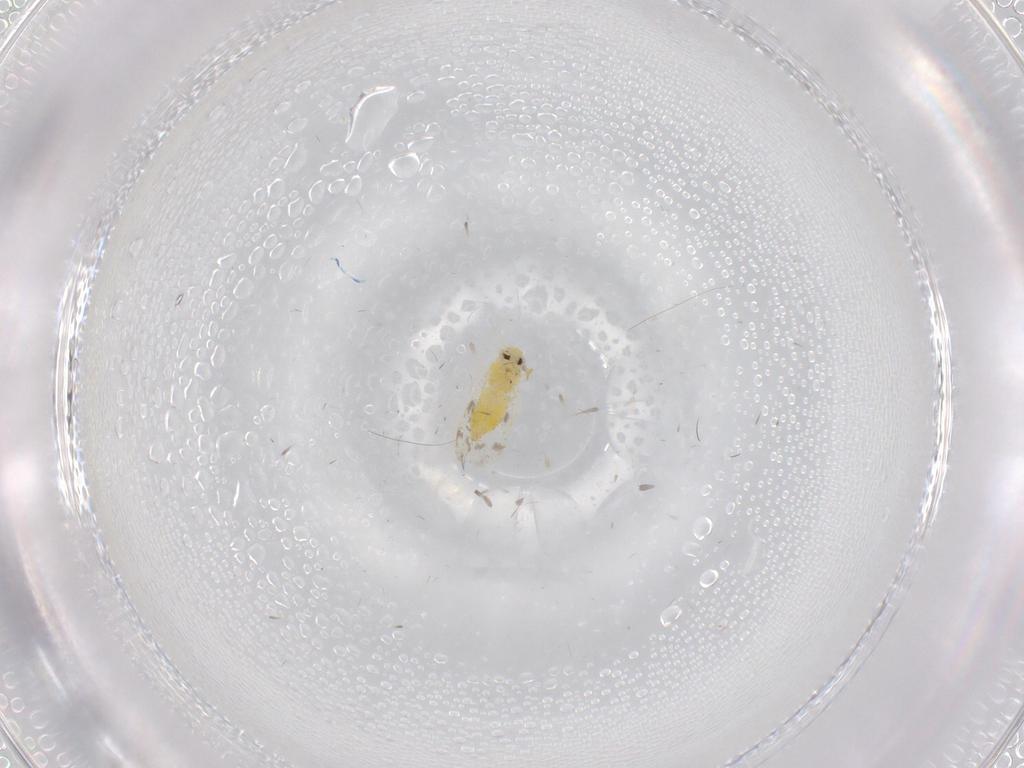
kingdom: Animalia
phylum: Arthropoda
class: Insecta
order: Hemiptera
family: Aleyrodidae
